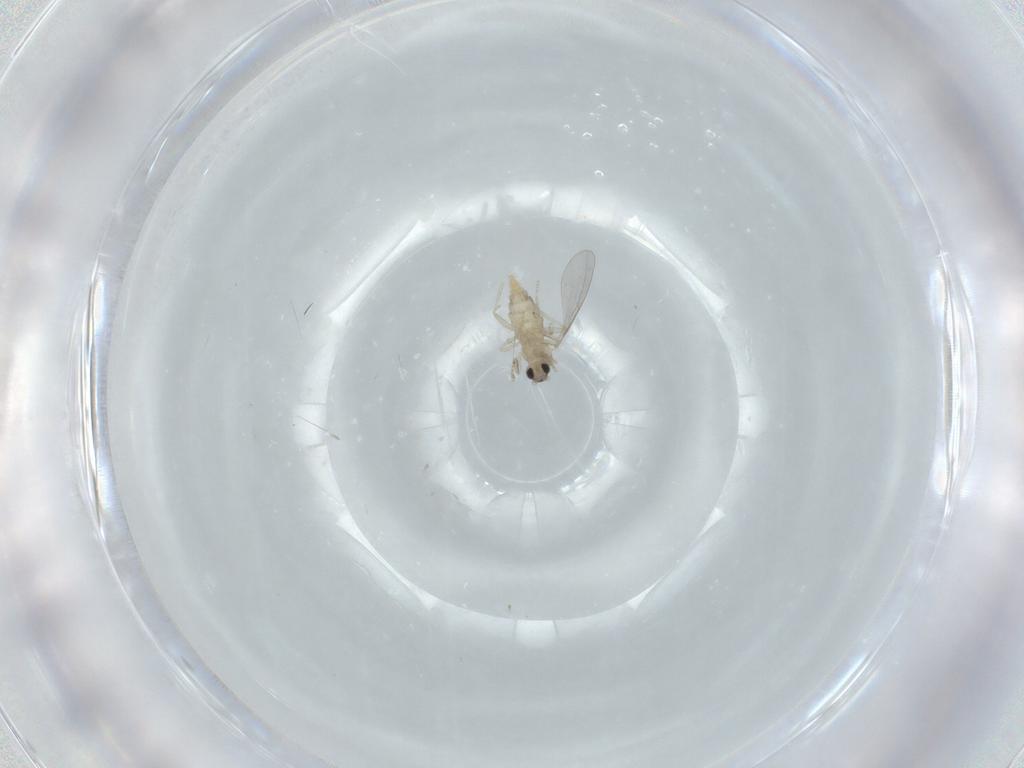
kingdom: Animalia
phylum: Arthropoda
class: Insecta
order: Diptera
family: Cecidomyiidae
